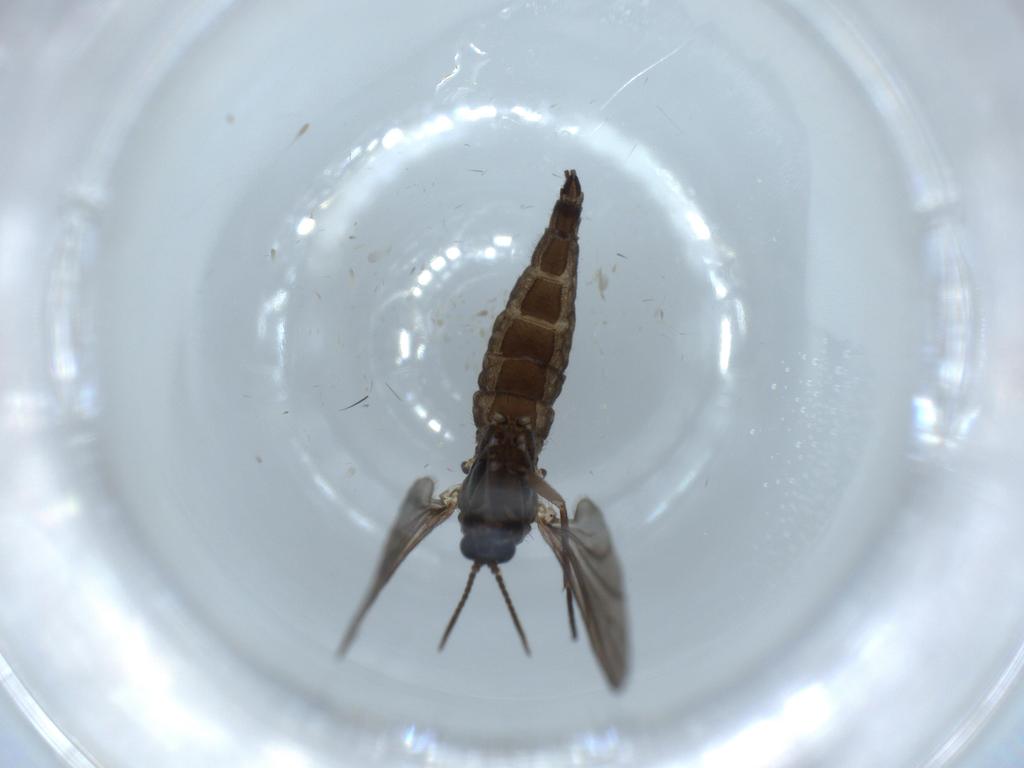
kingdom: Animalia
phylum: Arthropoda
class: Insecta
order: Diptera
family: Sciaridae
